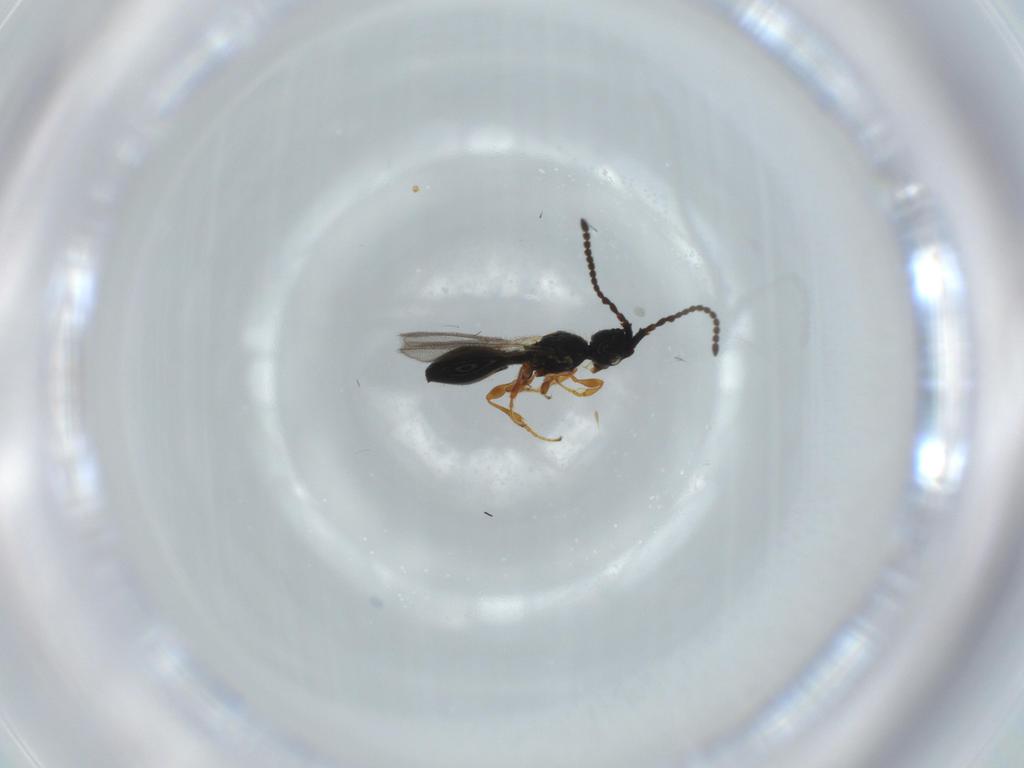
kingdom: Animalia
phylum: Arthropoda
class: Insecta
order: Hymenoptera
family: Diapriidae
